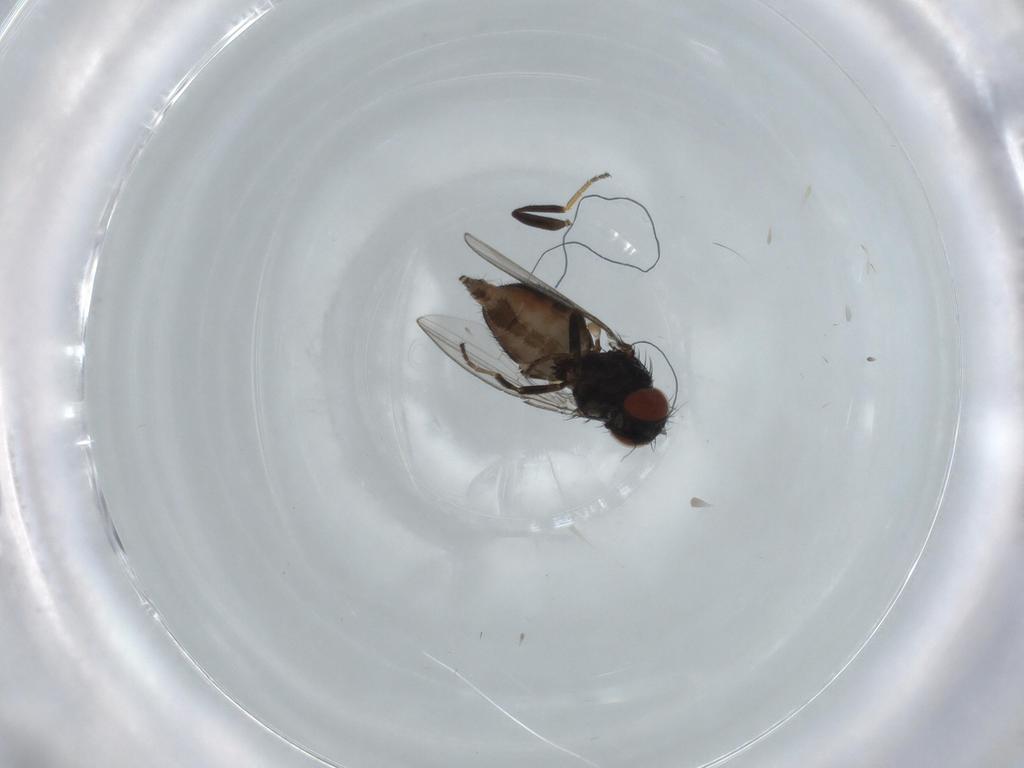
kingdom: Animalia
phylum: Arthropoda
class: Insecta
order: Diptera
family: Milichiidae
